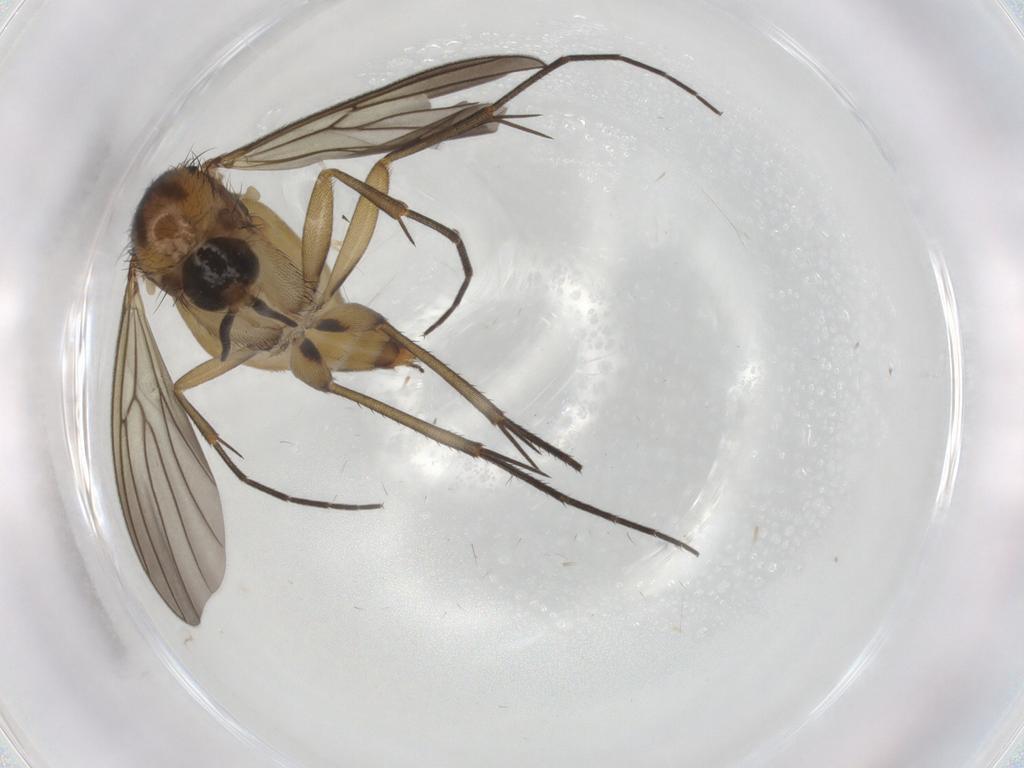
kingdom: Animalia
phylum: Arthropoda
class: Insecta
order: Diptera
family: Mycetophilidae
